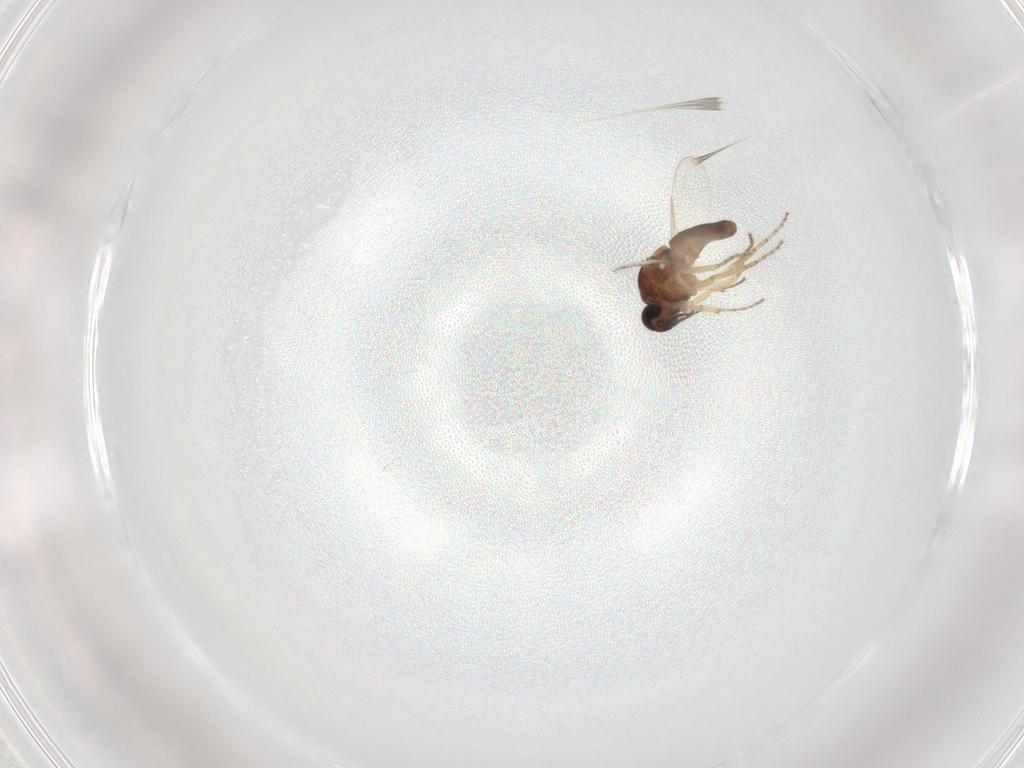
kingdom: Animalia
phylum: Arthropoda
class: Insecta
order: Diptera
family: Ceratopogonidae
